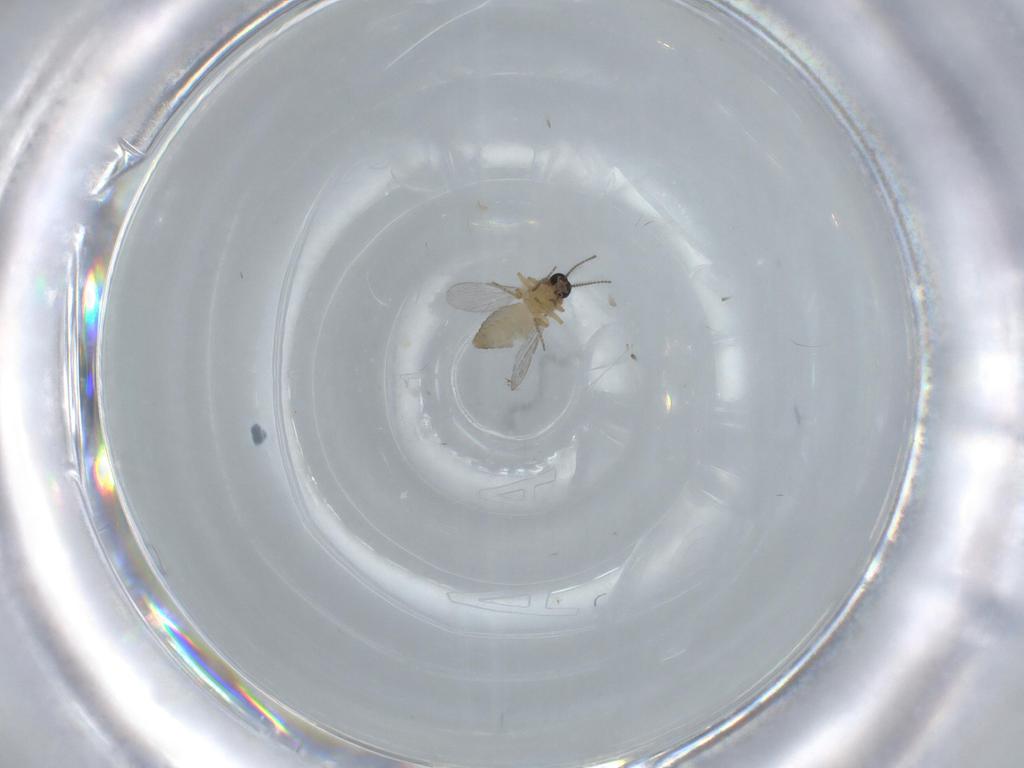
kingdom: Animalia
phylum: Arthropoda
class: Insecta
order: Diptera
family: Ceratopogonidae
